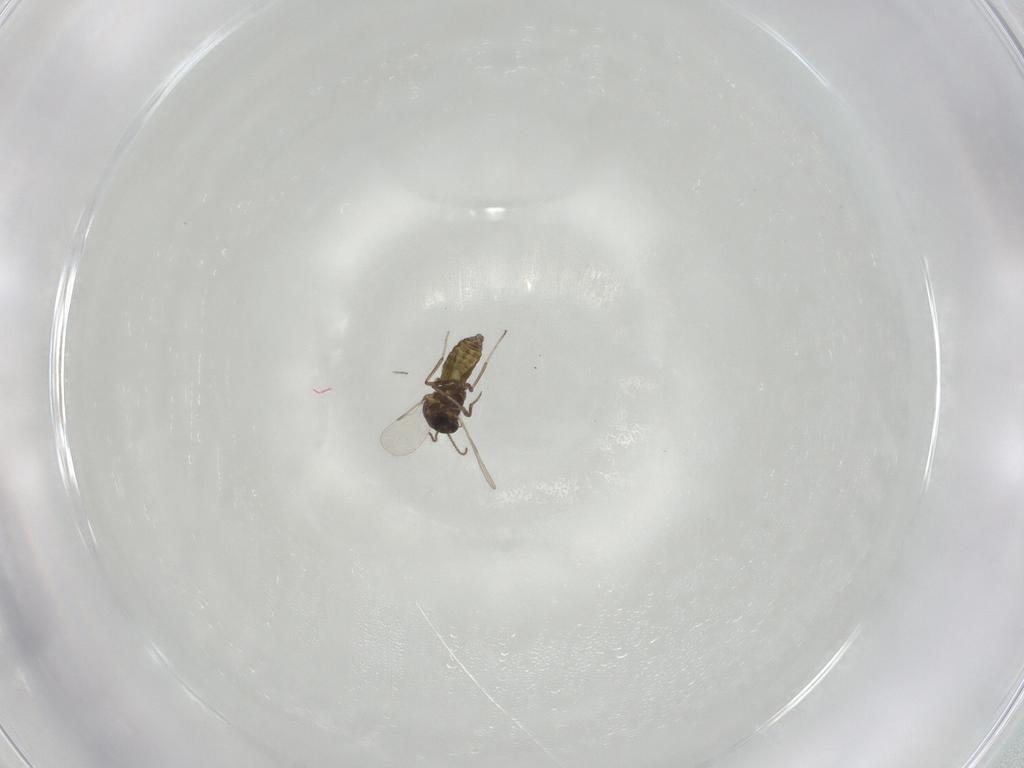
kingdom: Animalia
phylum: Arthropoda
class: Insecta
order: Diptera
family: Ceratopogonidae
